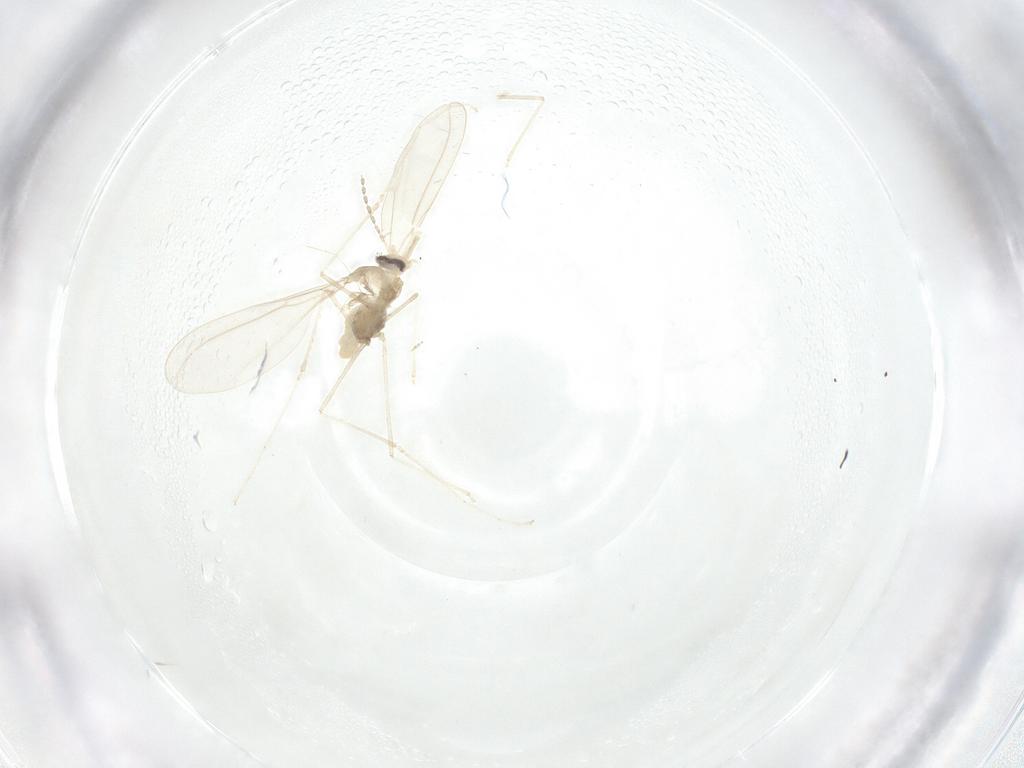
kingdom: Animalia
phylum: Arthropoda
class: Insecta
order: Diptera
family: Cecidomyiidae
